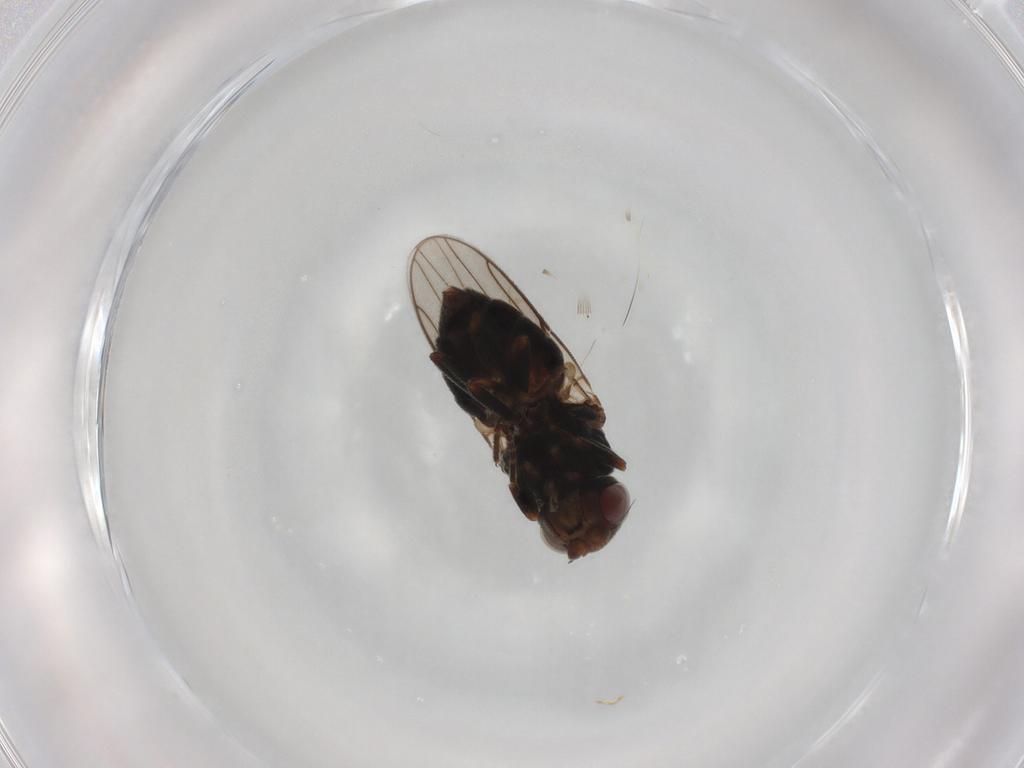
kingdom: Animalia
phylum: Arthropoda
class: Insecta
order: Diptera
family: Chloropidae
